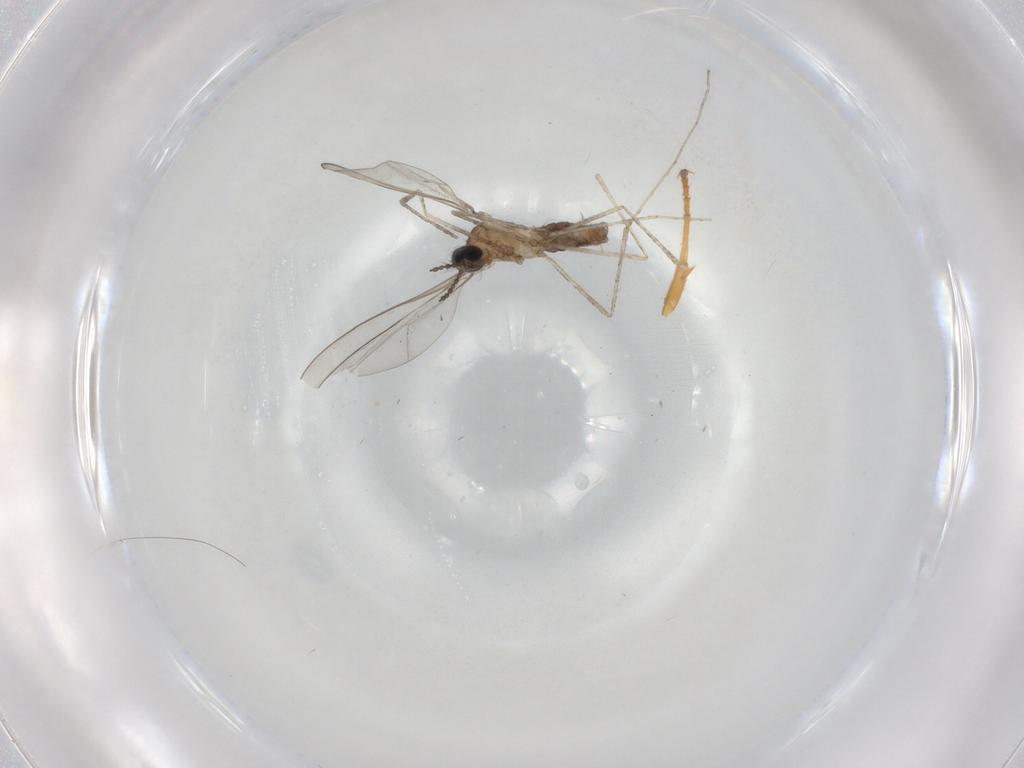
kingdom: Animalia
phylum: Arthropoda
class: Insecta
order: Diptera
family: Cecidomyiidae
